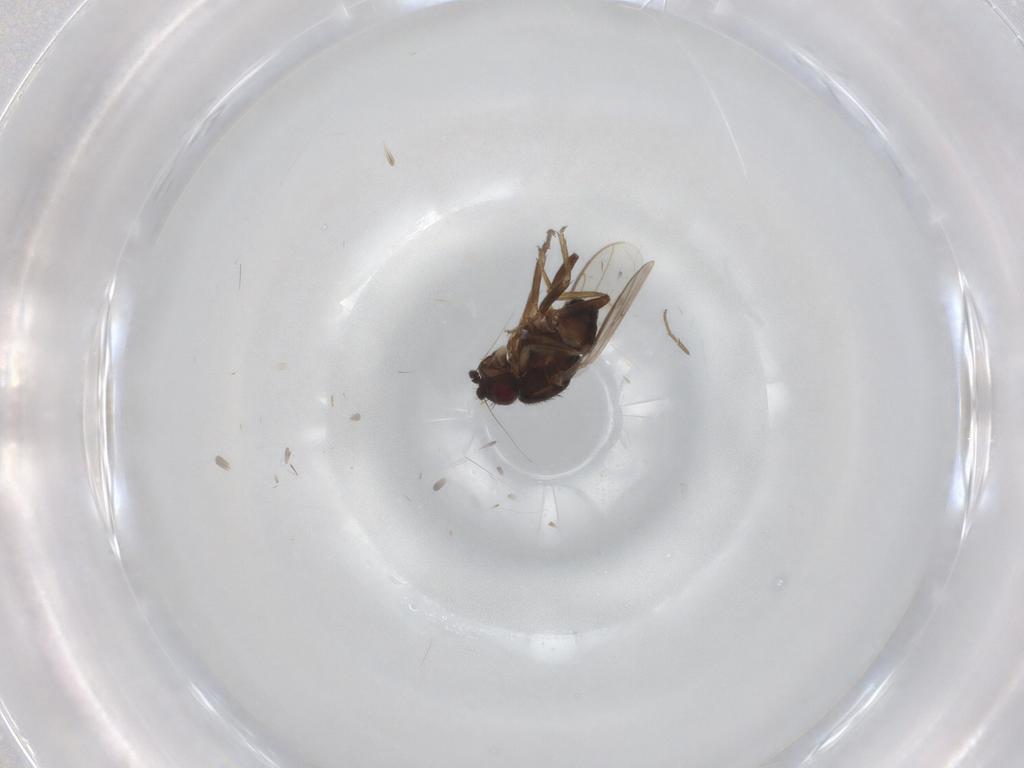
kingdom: Animalia
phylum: Arthropoda
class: Insecta
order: Diptera
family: Sphaeroceridae
